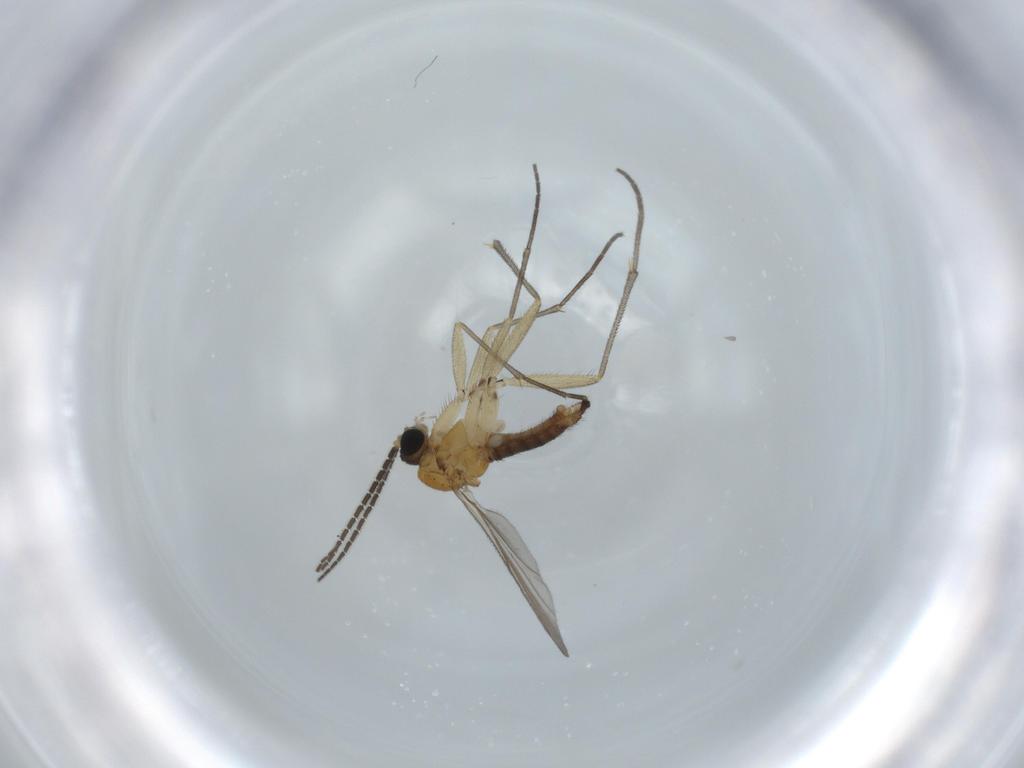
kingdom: Animalia
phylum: Arthropoda
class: Insecta
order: Diptera
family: Sciaridae
